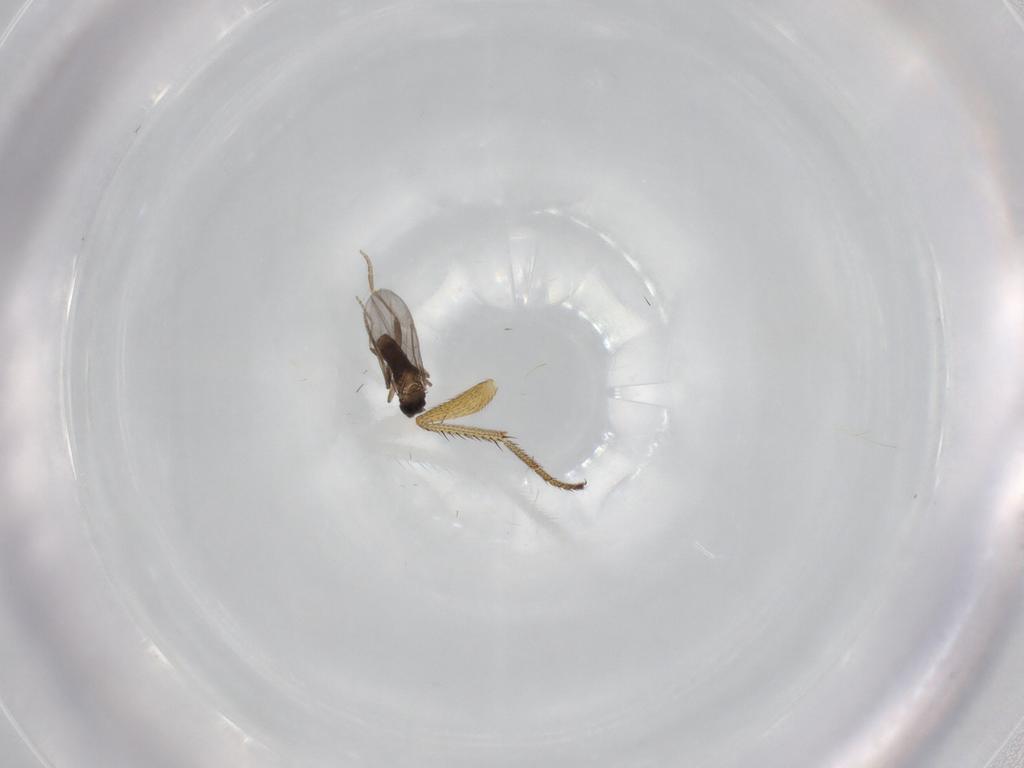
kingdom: Animalia
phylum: Arthropoda
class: Insecta
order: Diptera
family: Dolichopodidae
